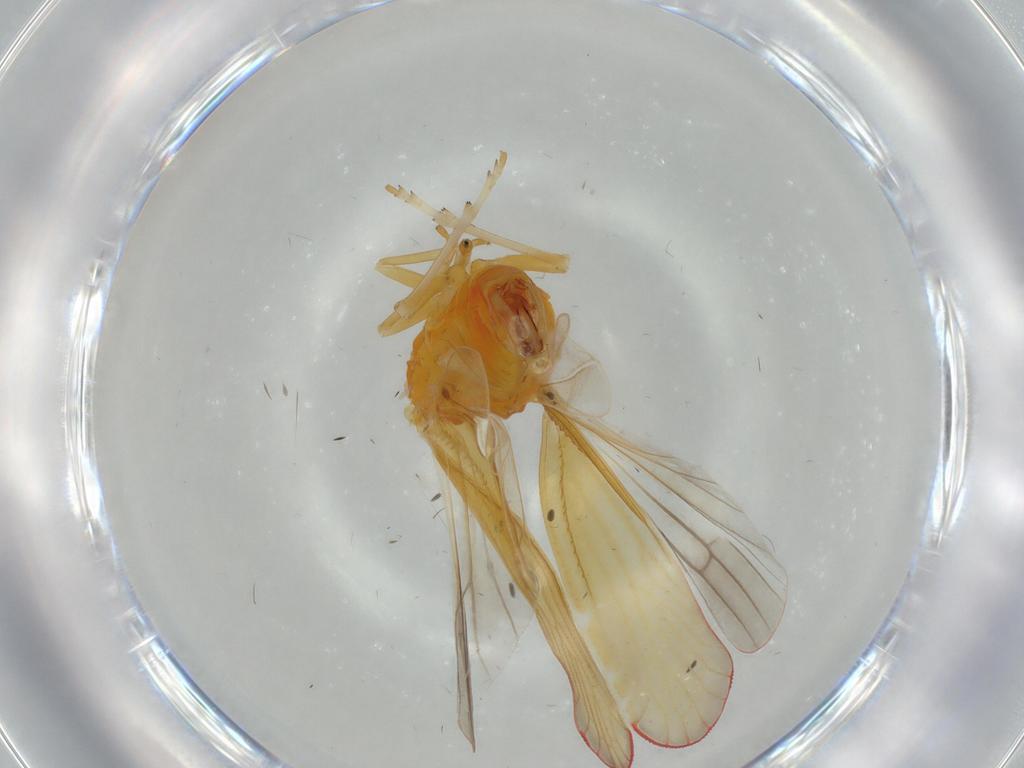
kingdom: Animalia
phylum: Arthropoda
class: Insecta
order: Hemiptera
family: Derbidae
